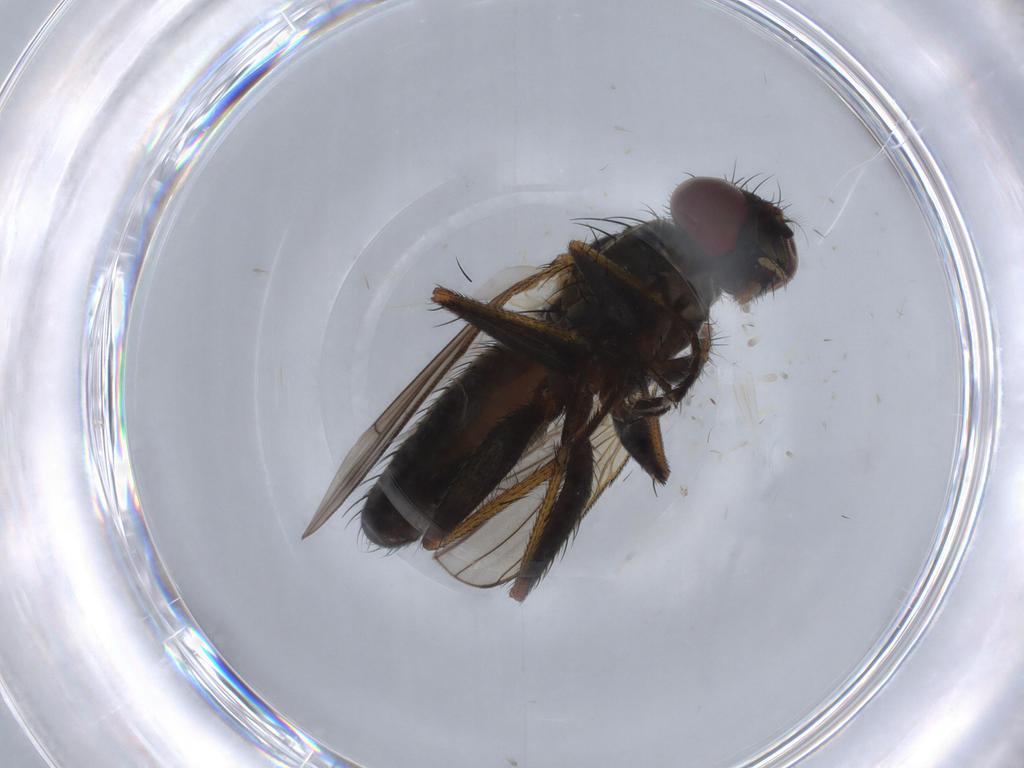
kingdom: Animalia
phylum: Arthropoda
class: Insecta
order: Diptera
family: Muscidae
